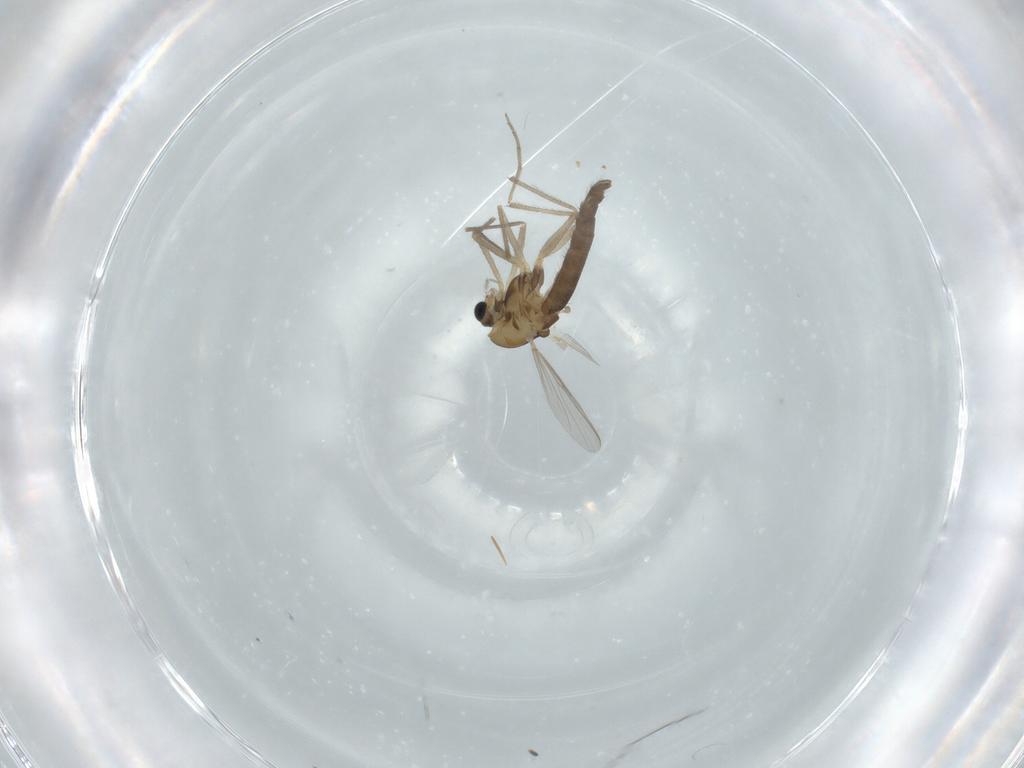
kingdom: Animalia
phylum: Arthropoda
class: Insecta
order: Diptera
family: Chironomidae
